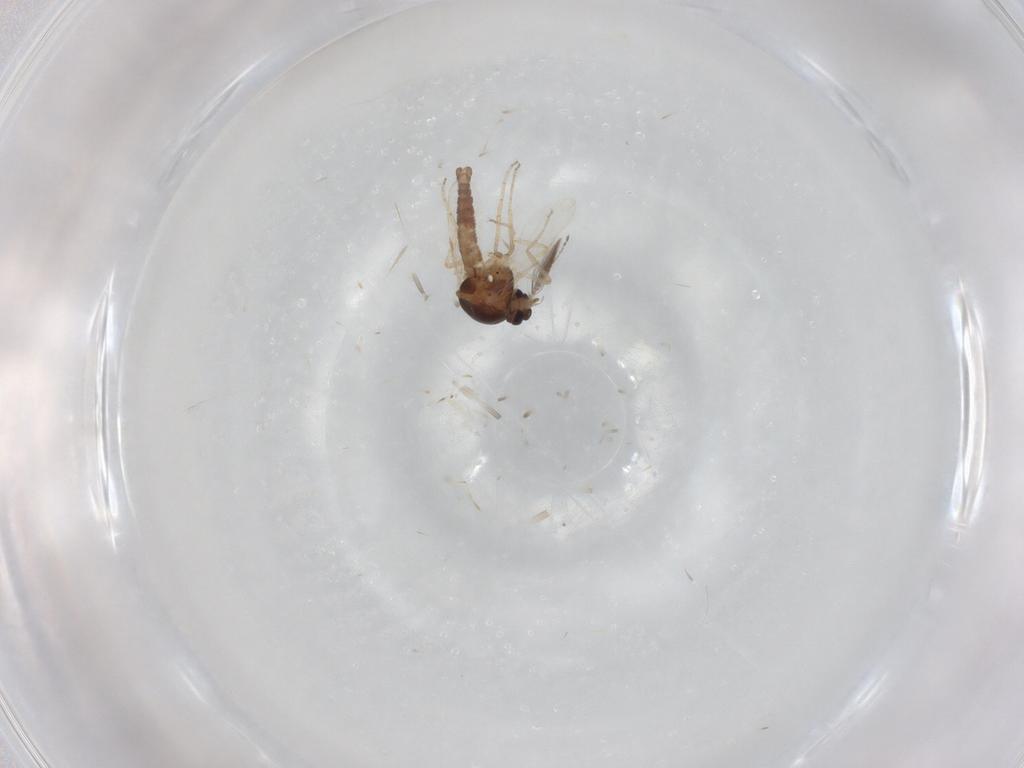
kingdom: Animalia
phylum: Arthropoda
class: Insecta
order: Diptera
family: Ceratopogonidae
